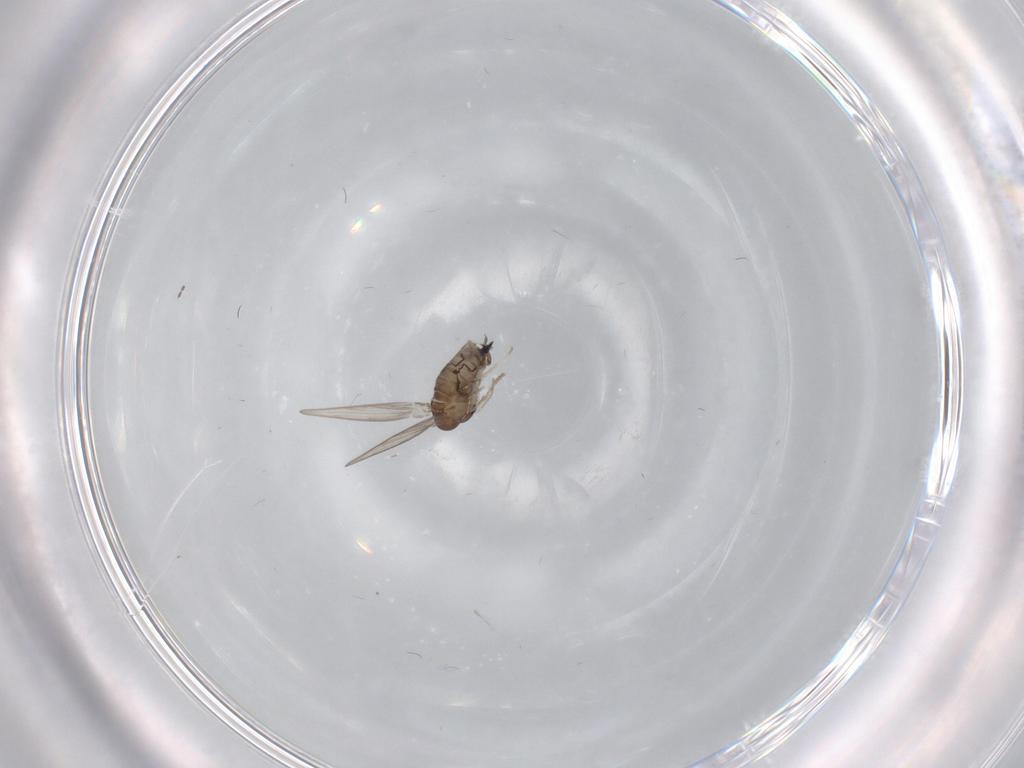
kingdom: Animalia
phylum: Arthropoda
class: Insecta
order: Diptera
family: Psychodidae
